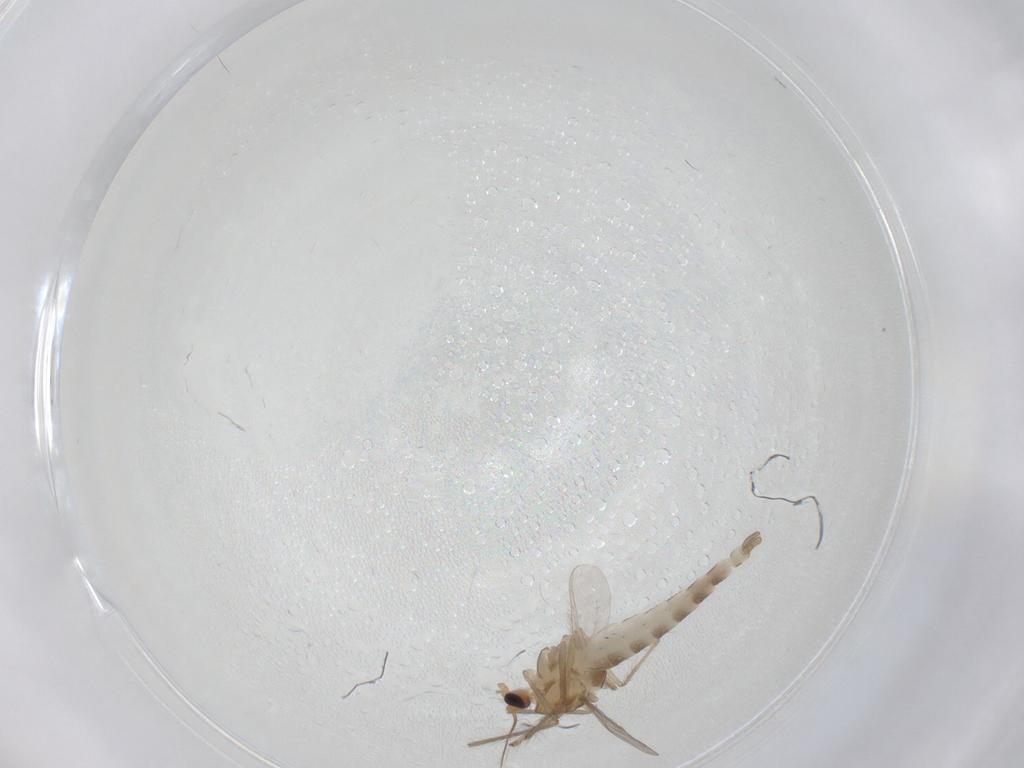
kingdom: Animalia
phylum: Arthropoda
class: Insecta
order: Diptera
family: Chironomidae
